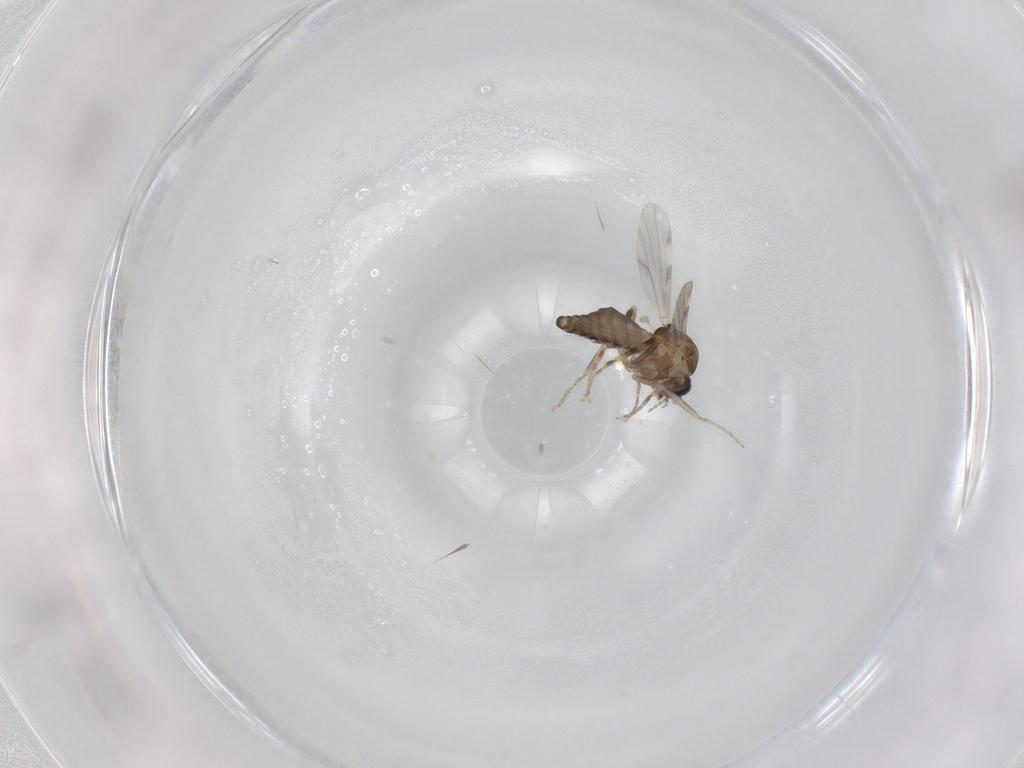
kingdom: Animalia
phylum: Arthropoda
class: Insecta
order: Diptera
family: Ceratopogonidae
